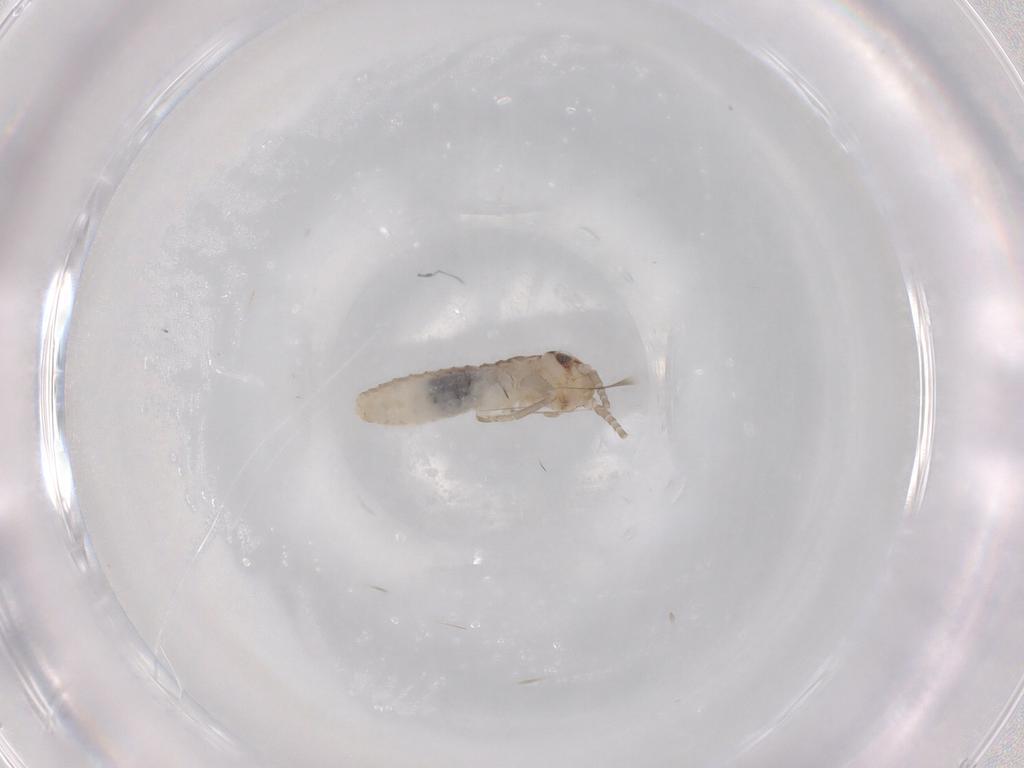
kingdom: Animalia
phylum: Arthropoda
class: Insecta
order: Orthoptera
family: Gryllidae
